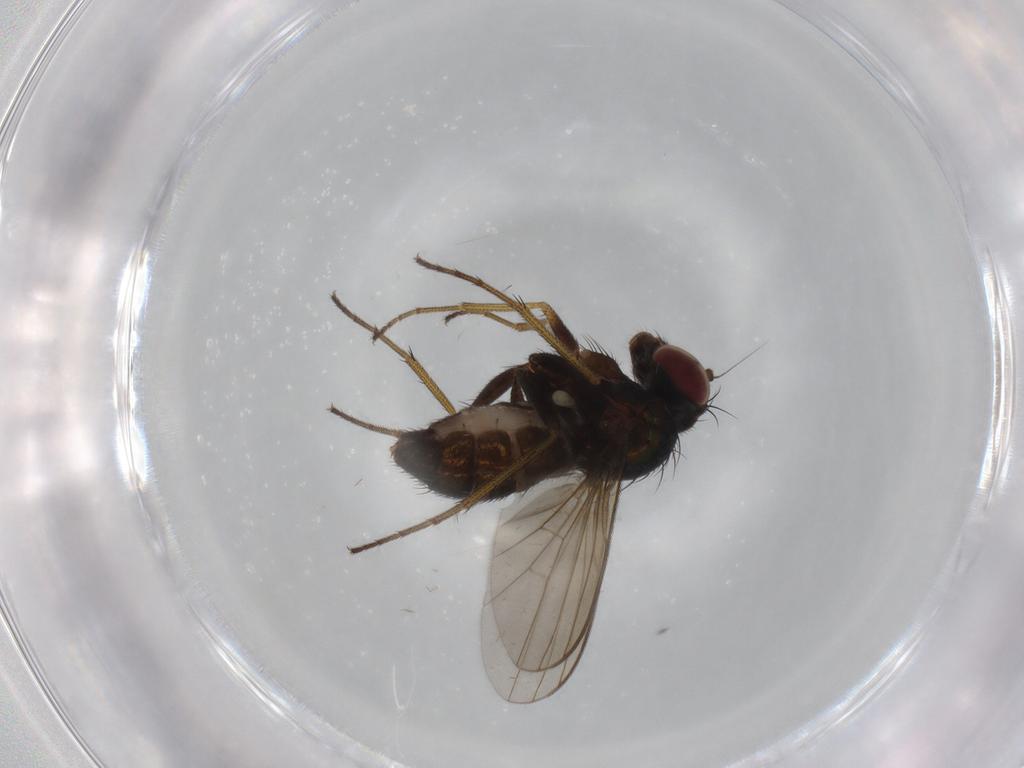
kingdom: Animalia
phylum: Arthropoda
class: Insecta
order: Diptera
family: Dolichopodidae
